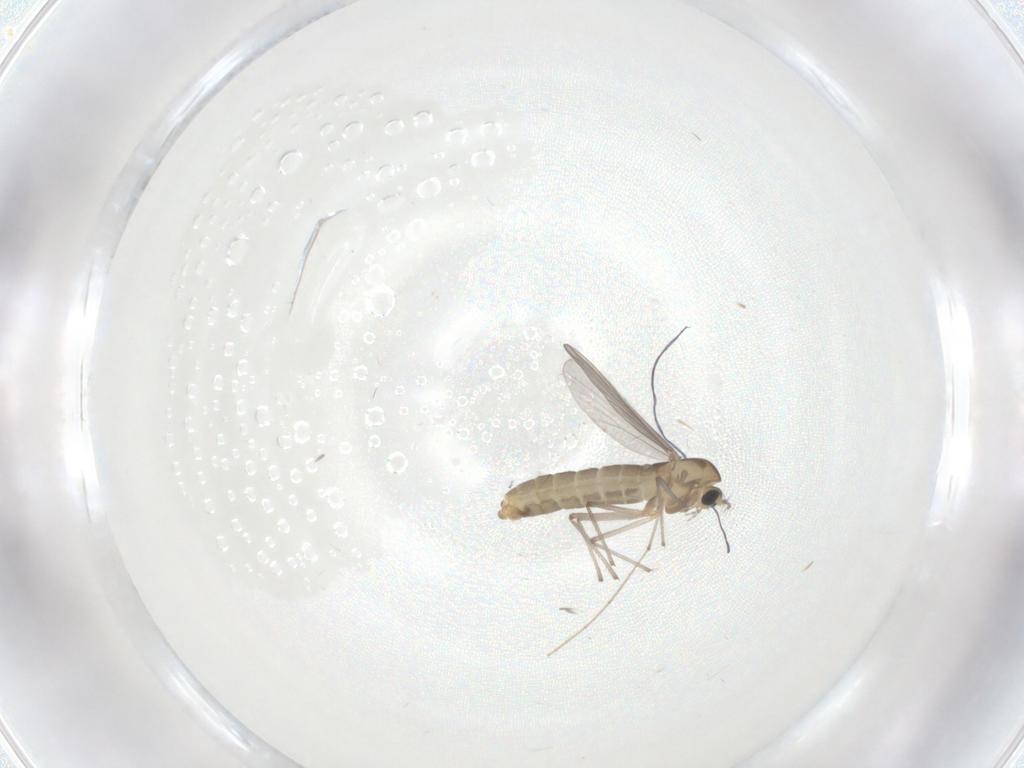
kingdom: Animalia
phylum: Arthropoda
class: Insecta
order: Diptera
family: Chironomidae
